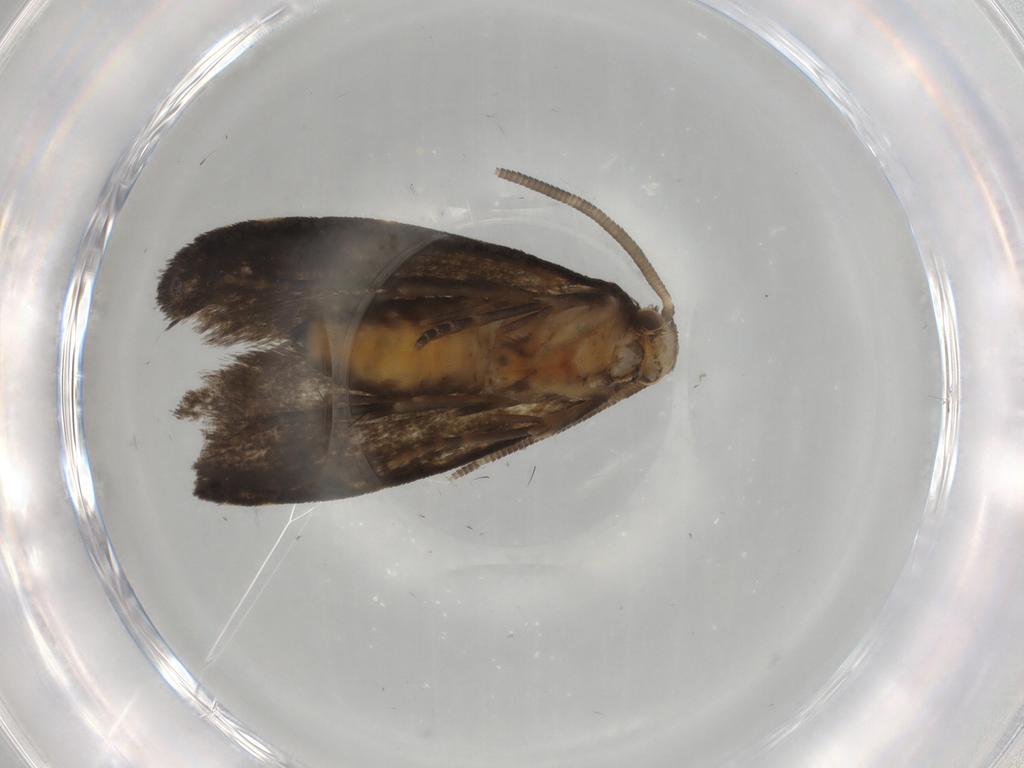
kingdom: Animalia
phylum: Arthropoda
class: Insecta
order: Lepidoptera
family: Dryadaulidae
